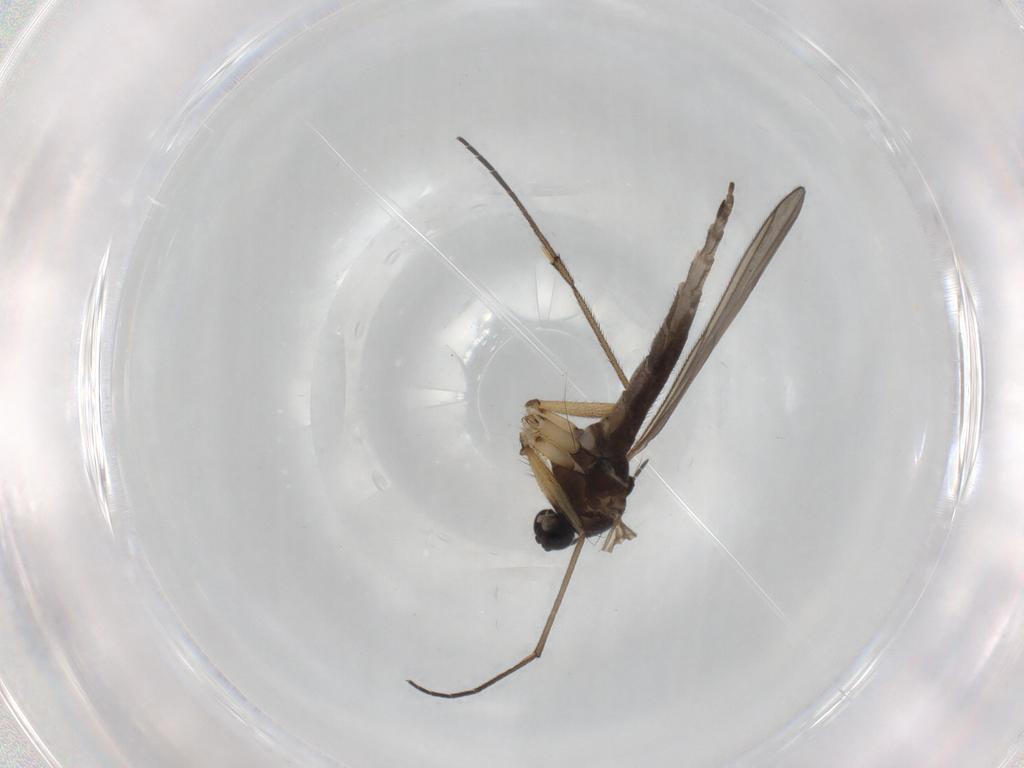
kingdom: Animalia
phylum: Arthropoda
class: Insecta
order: Diptera
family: Sciaridae
